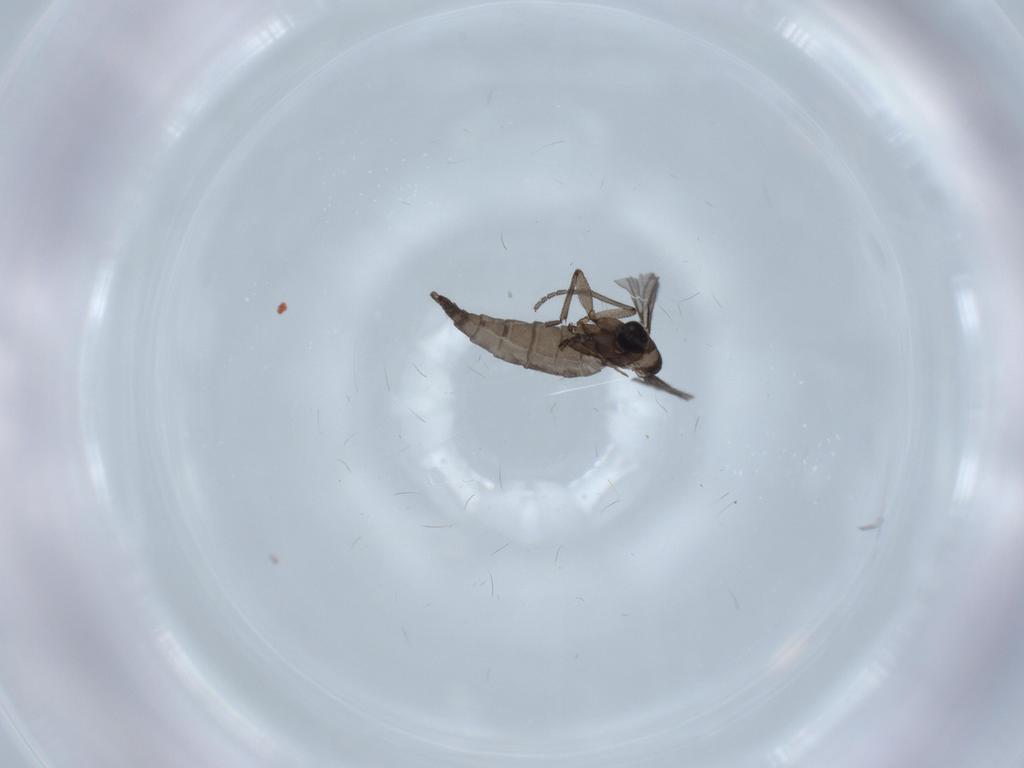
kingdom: Animalia
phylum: Arthropoda
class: Insecta
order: Diptera
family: Sciaridae
